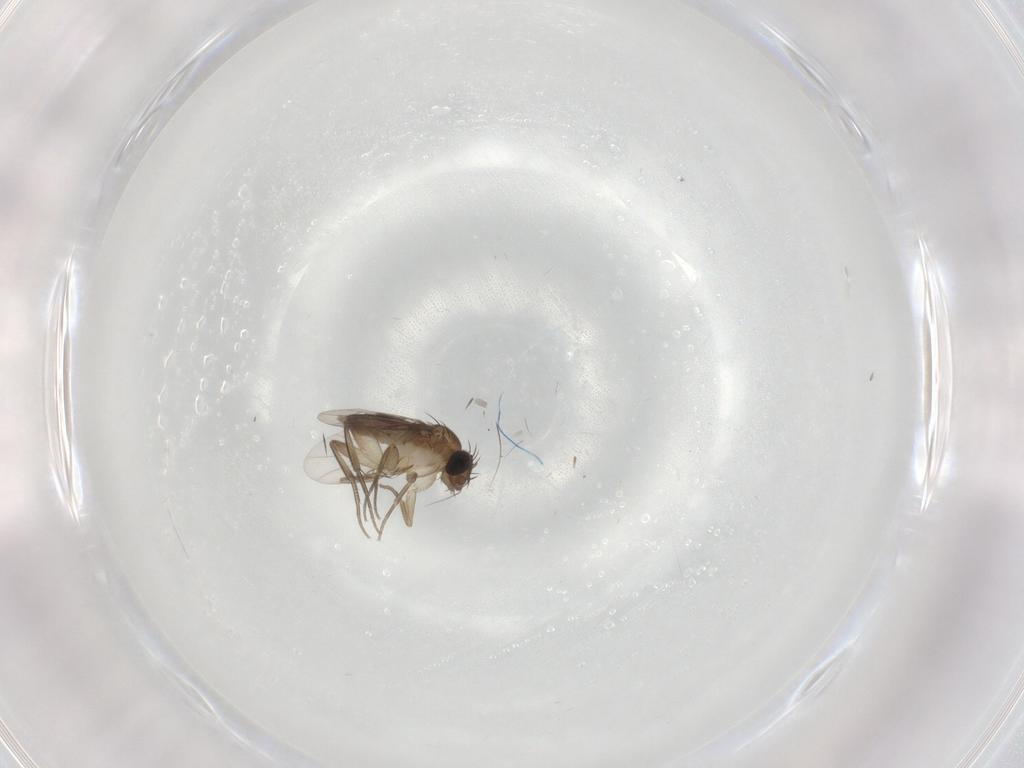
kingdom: Animalia
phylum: Arthropoda
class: Insecta
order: Diptera
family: Phoridae
